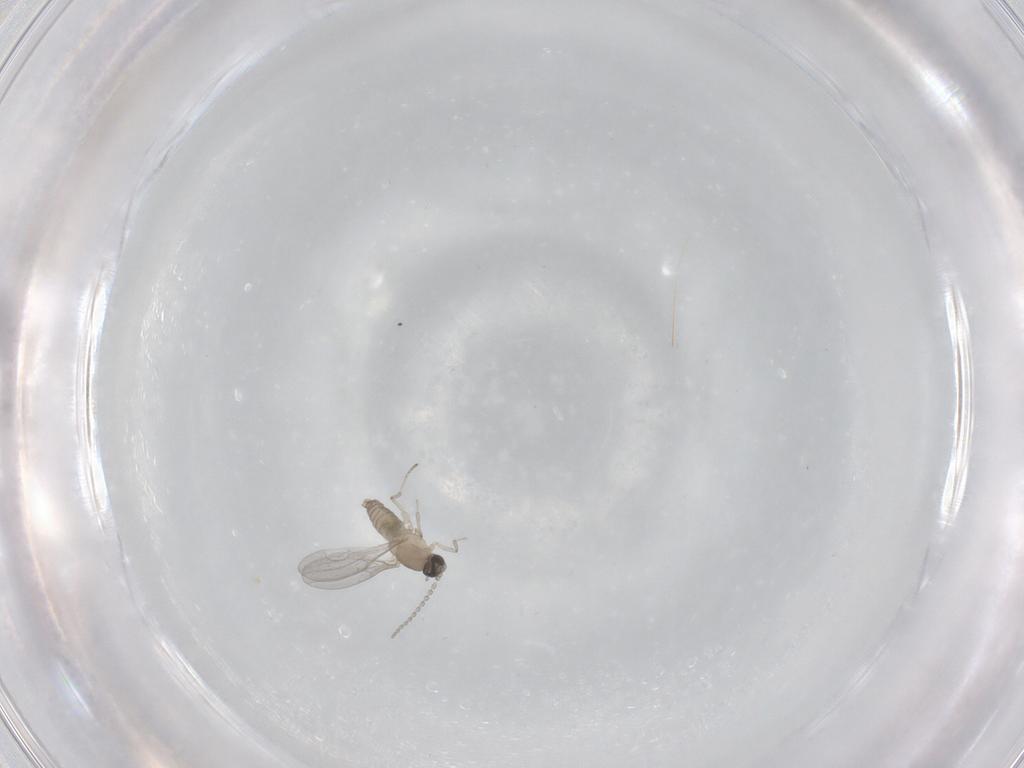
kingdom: Animalia
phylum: Arthropoda
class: Insecta
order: Diptera
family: Cecidomyiidae
